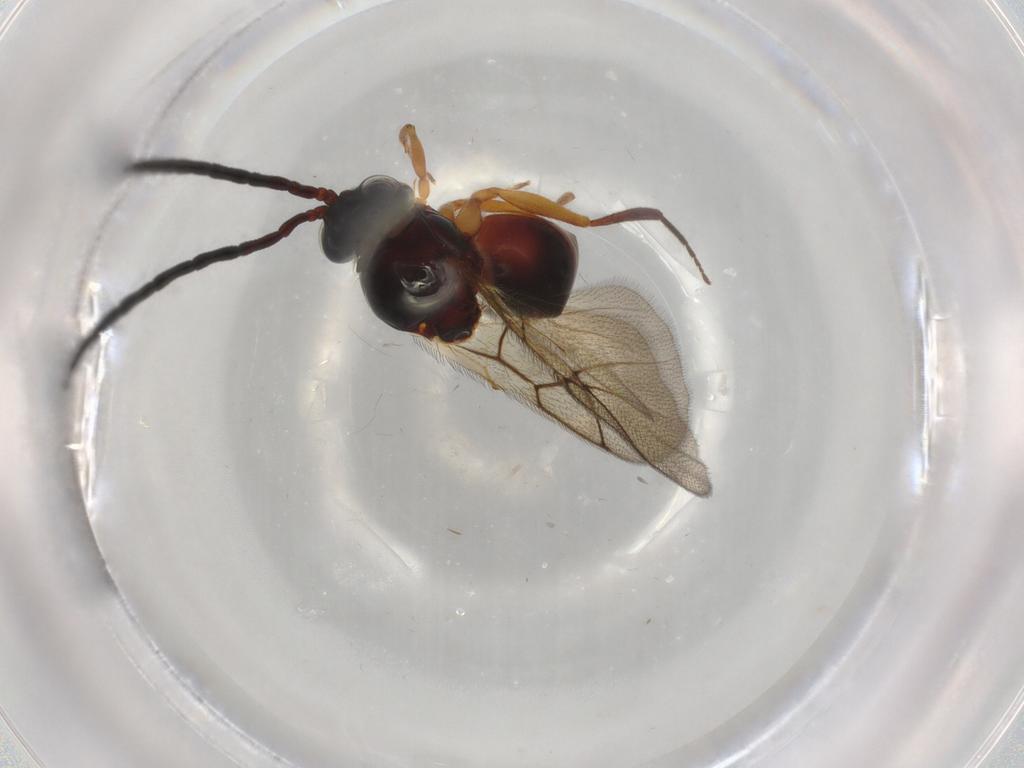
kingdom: Animalia
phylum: Arthropoda
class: Insecta
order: Hymenoptera
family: Figitidae
